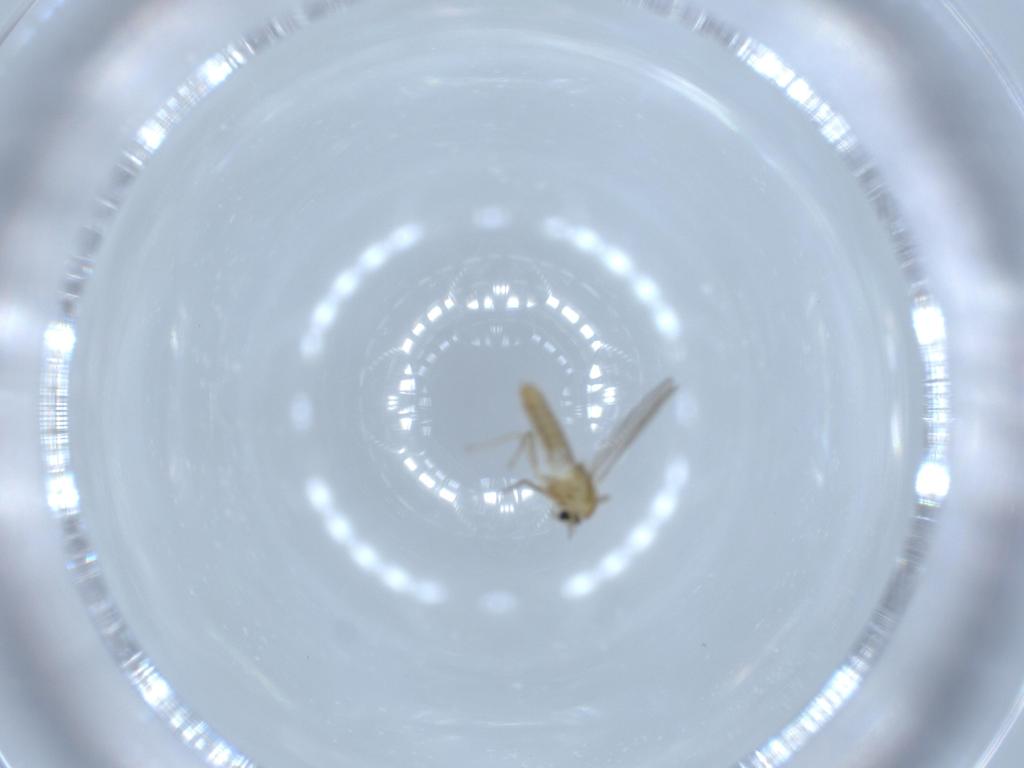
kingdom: Animalia
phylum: Arthropoda
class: Insecta
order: Diptera
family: Chironomidae
